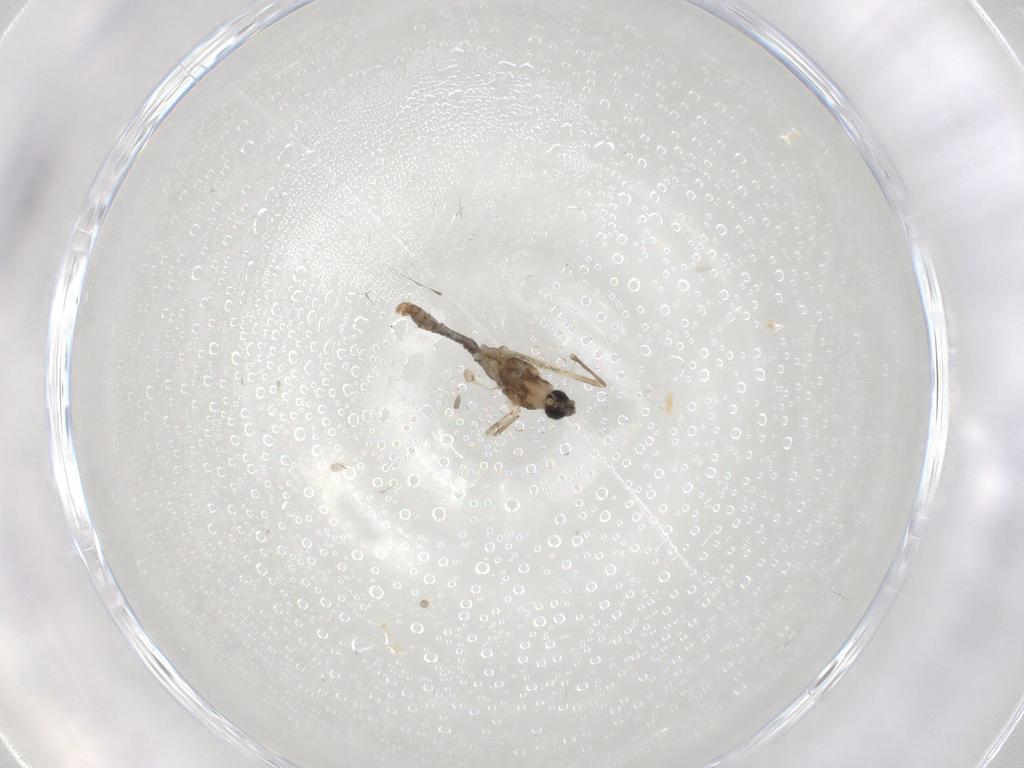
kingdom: Animalia
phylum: Arthropoda
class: Insecta
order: Diptera
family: Cecidomyiidae
